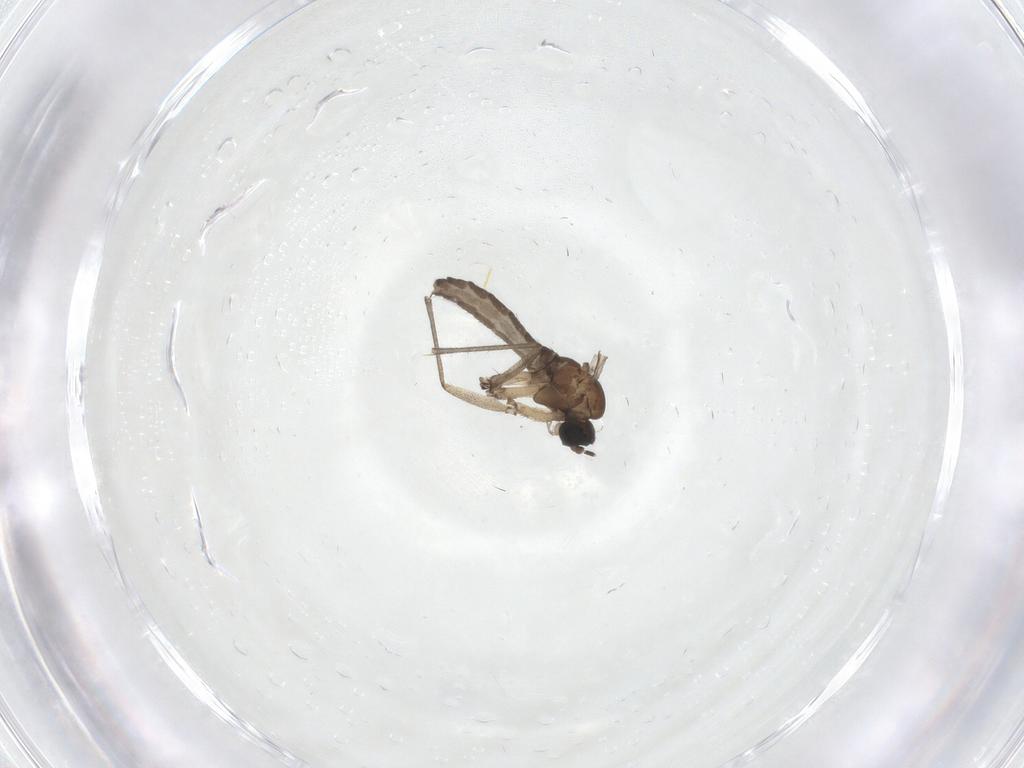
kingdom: Animalia
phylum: Arthropoda
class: Insecta
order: Diptera
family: Sciaridae
